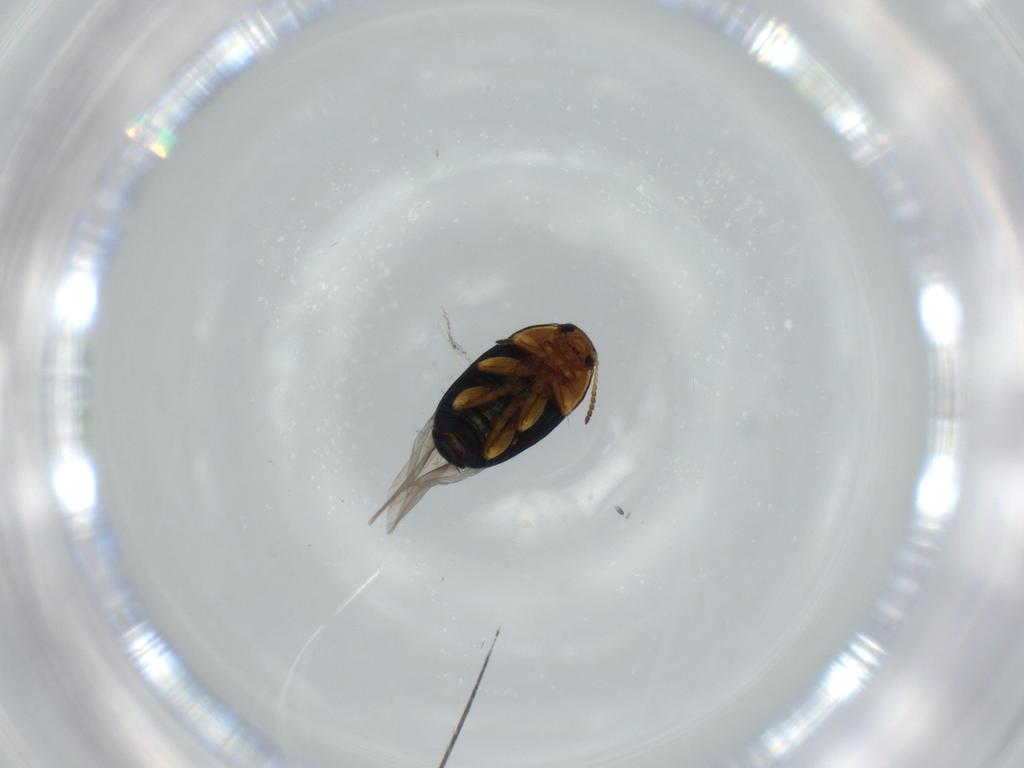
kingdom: Animalia
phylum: Arthropoda
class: Insecta
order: Coleoptera
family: Chrysomelidae
